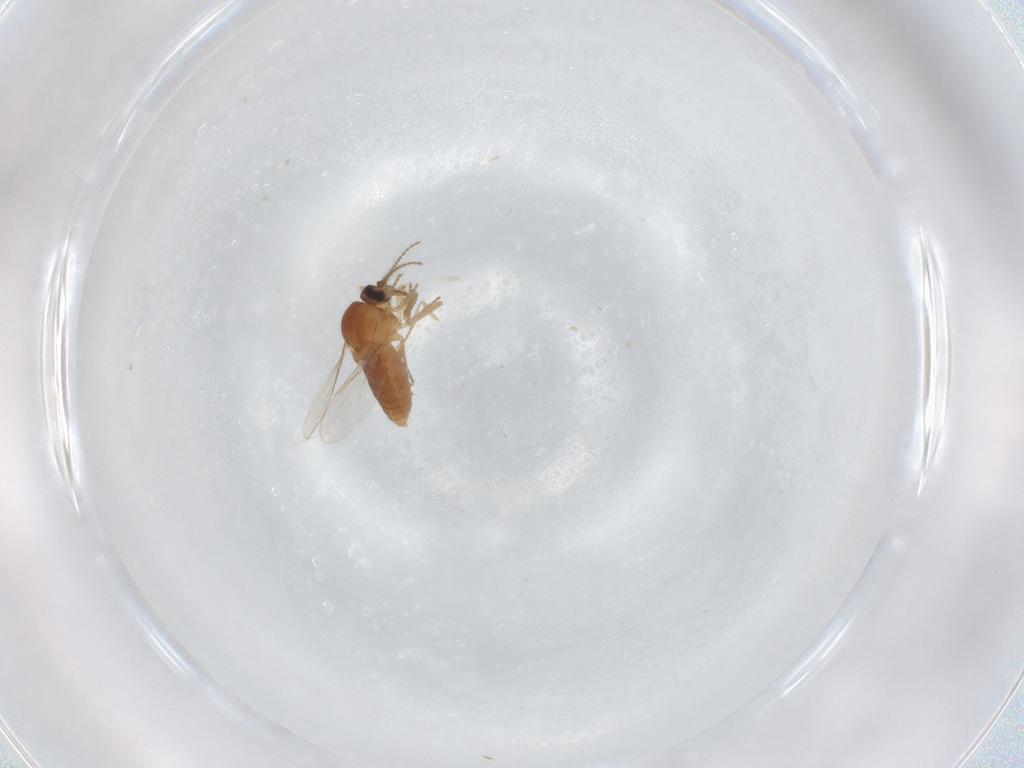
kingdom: Animalia
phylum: Arthropoda
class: Insecta
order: Diptera
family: Ceratopogonidae
